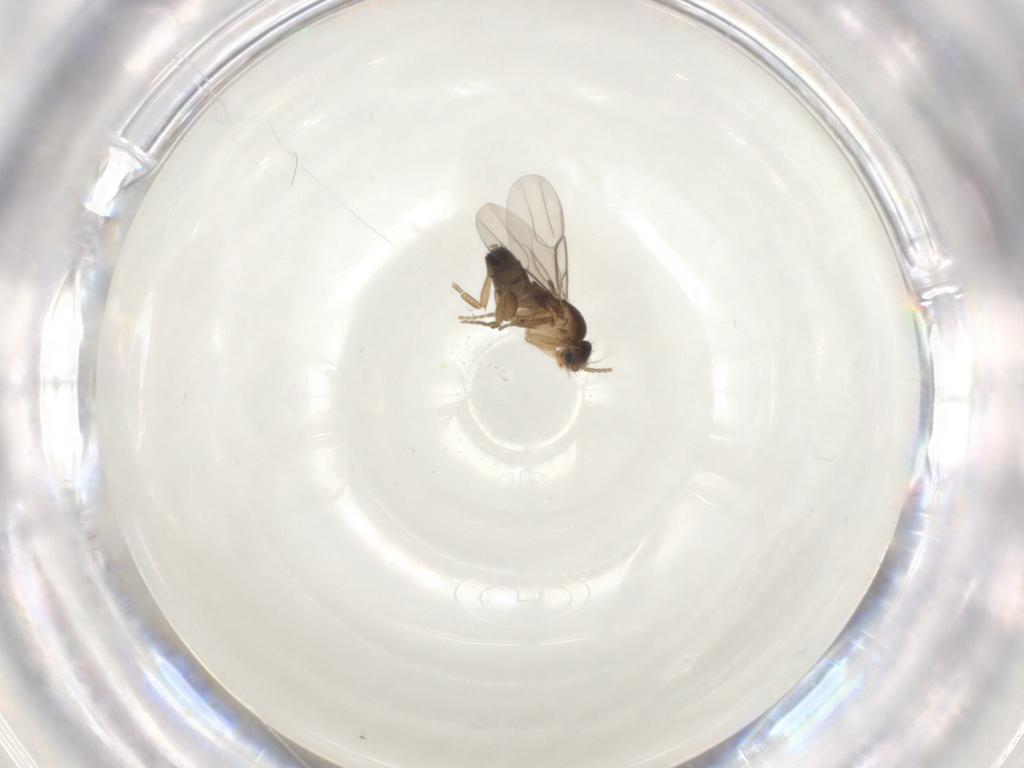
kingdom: Animalia
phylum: Arthropoda
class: Insecta
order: Diptera
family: Phoridae
